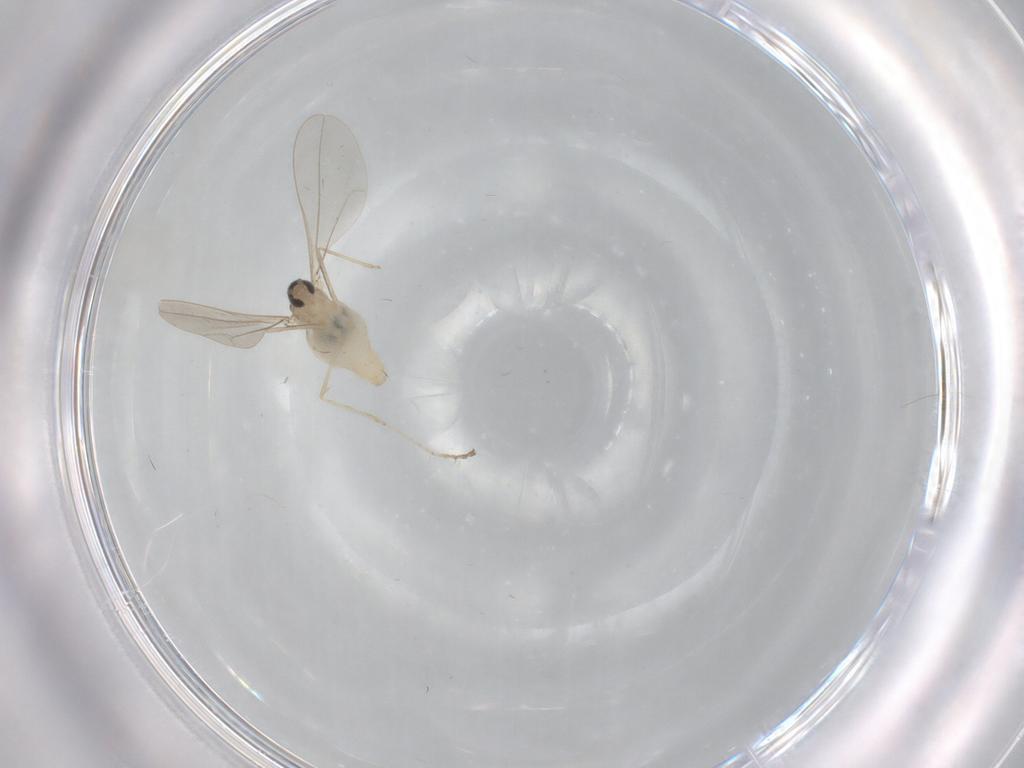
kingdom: Animalia
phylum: Arthropoda
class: Insecta
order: Diptera
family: Cecidomyiidae
